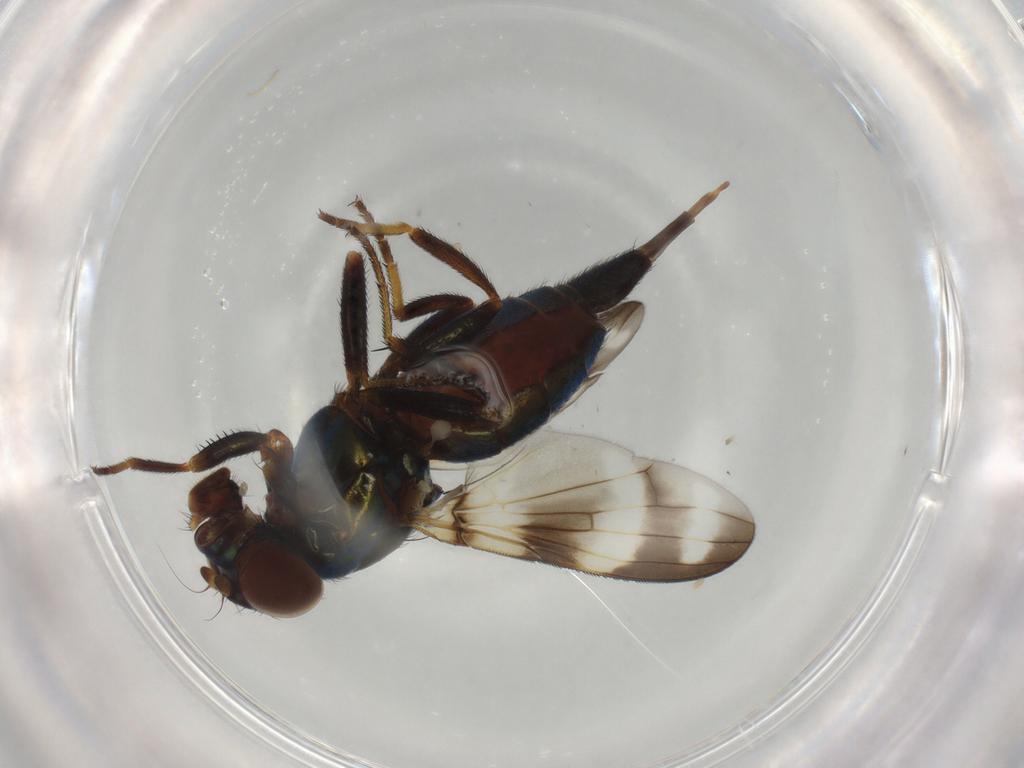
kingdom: Animalia
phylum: Arthropoda
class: Insecta
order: Diptera
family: Ulidiidae
